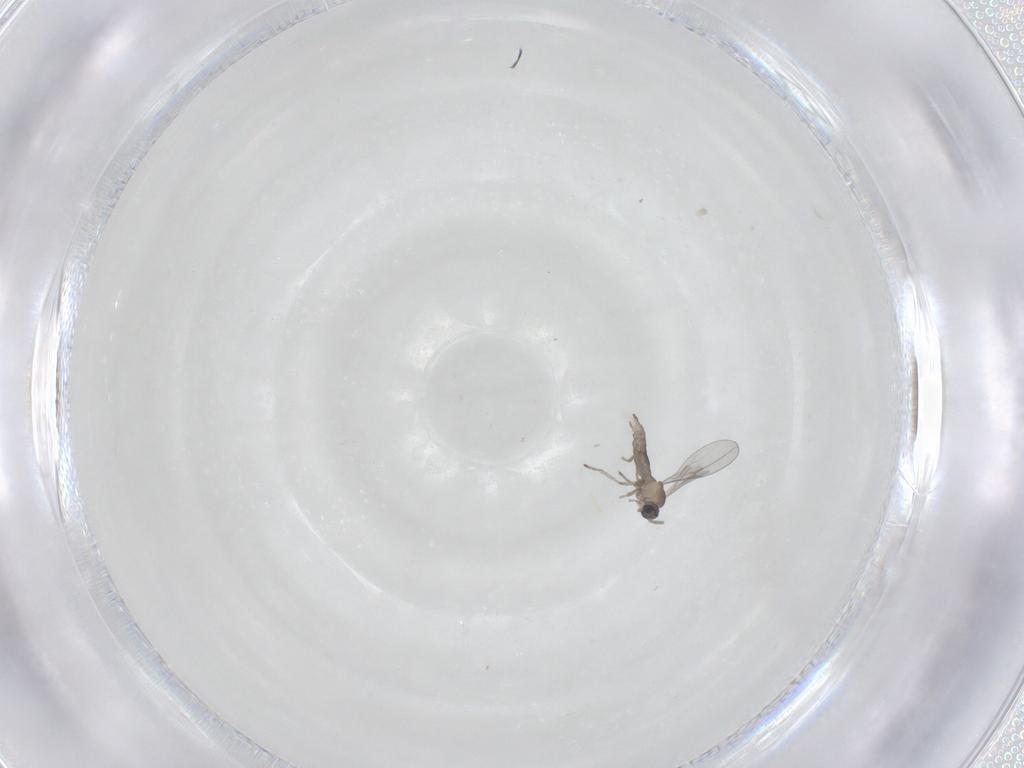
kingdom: Animalia
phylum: Arthropoda
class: Insecta
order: Diptera
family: Cecidomyiidae
